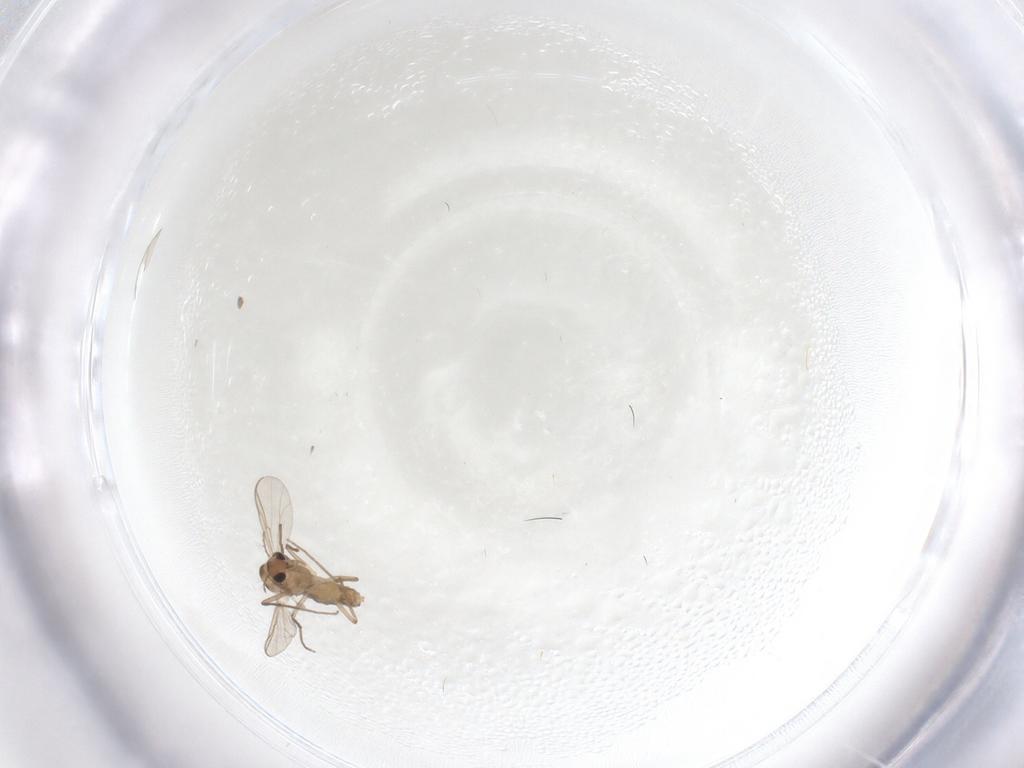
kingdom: Animalia
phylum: Arthropoda
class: Insecta
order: Diptera
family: Chironomidae
